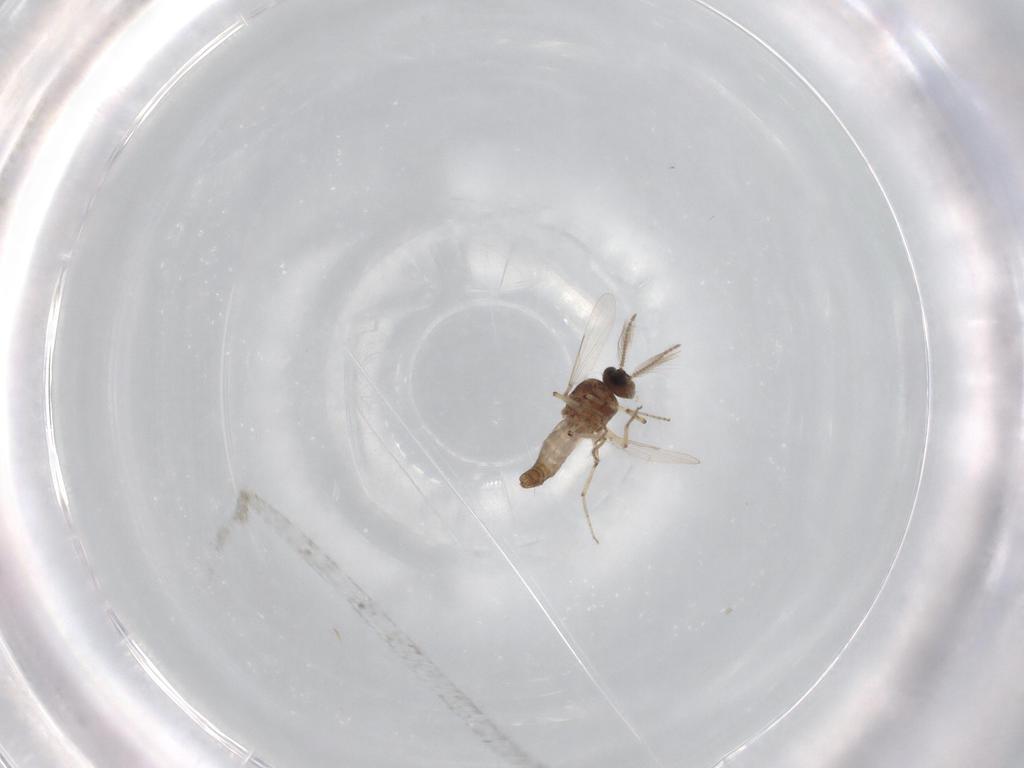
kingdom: Animalia
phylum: Arthropoda
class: Insecta
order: Diptera
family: Ceratopogonidae
